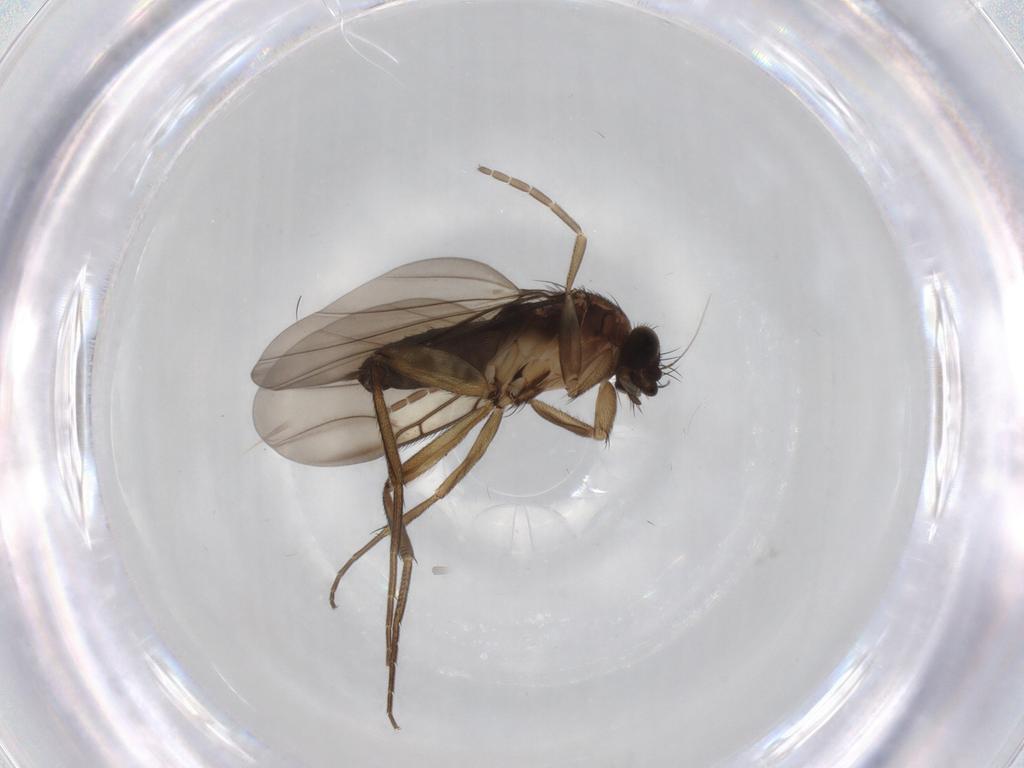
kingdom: Animalia
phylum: Arthropoda
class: Insecta
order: Diptera
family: Phoridae
